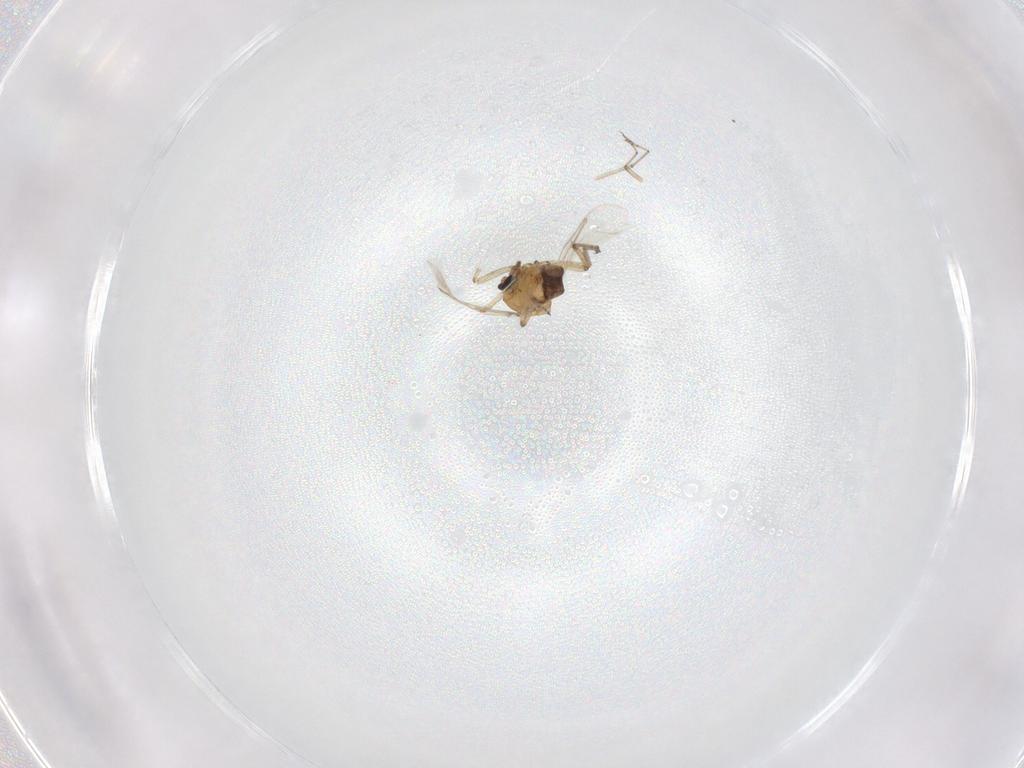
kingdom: Animalia
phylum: Arthropoda
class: Insecta
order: Diptera
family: Ceratopogonidae
